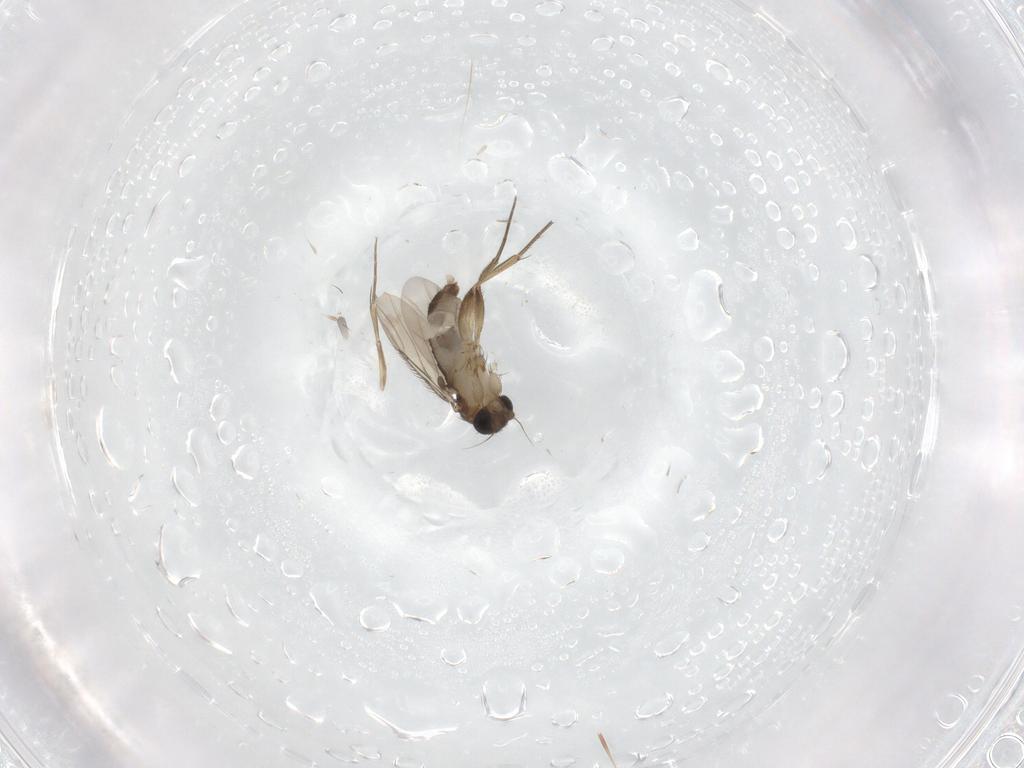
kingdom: Animalia
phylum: Arthropoda
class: Insecta
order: Diptera
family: Phoridae
